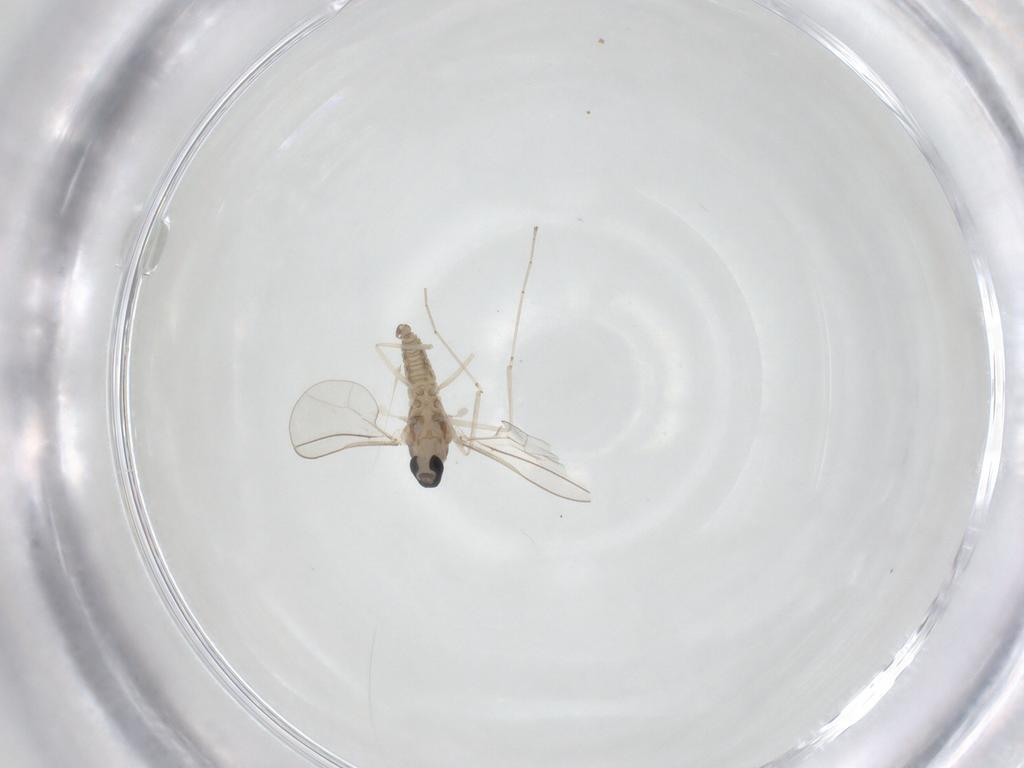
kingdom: Animalia
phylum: Arthropoda
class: Insecta
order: Diptera
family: Cecidomyiidae
